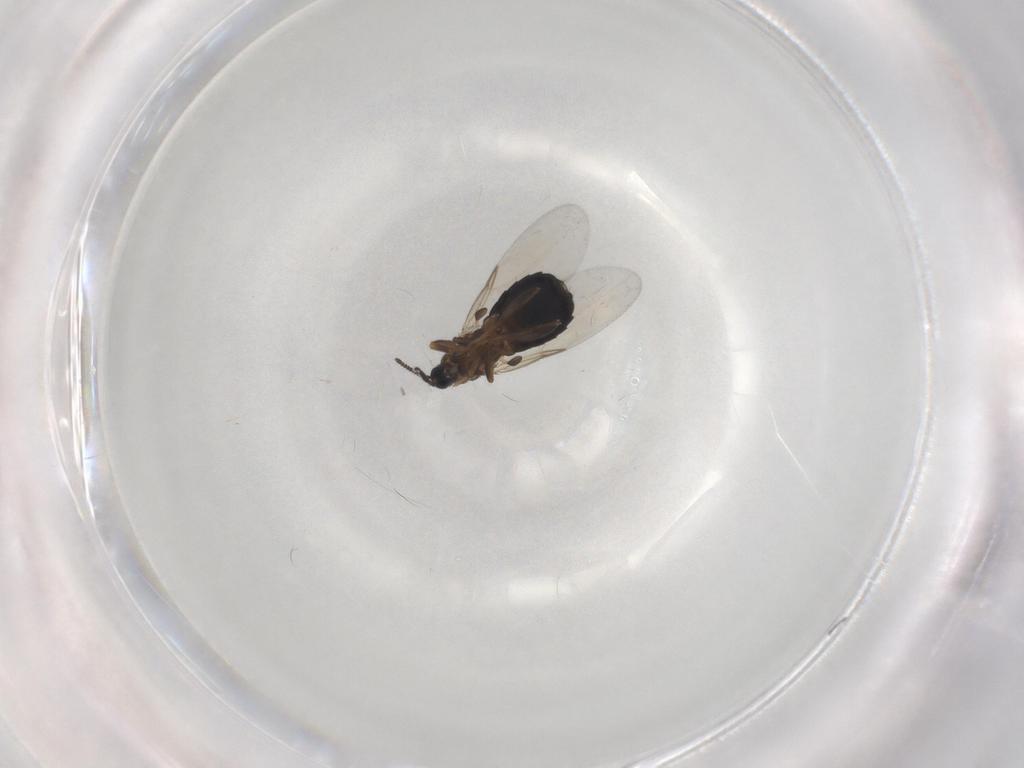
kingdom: Animalia
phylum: Arthropoda
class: Insecta
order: Diptera
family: Scatopsidae
